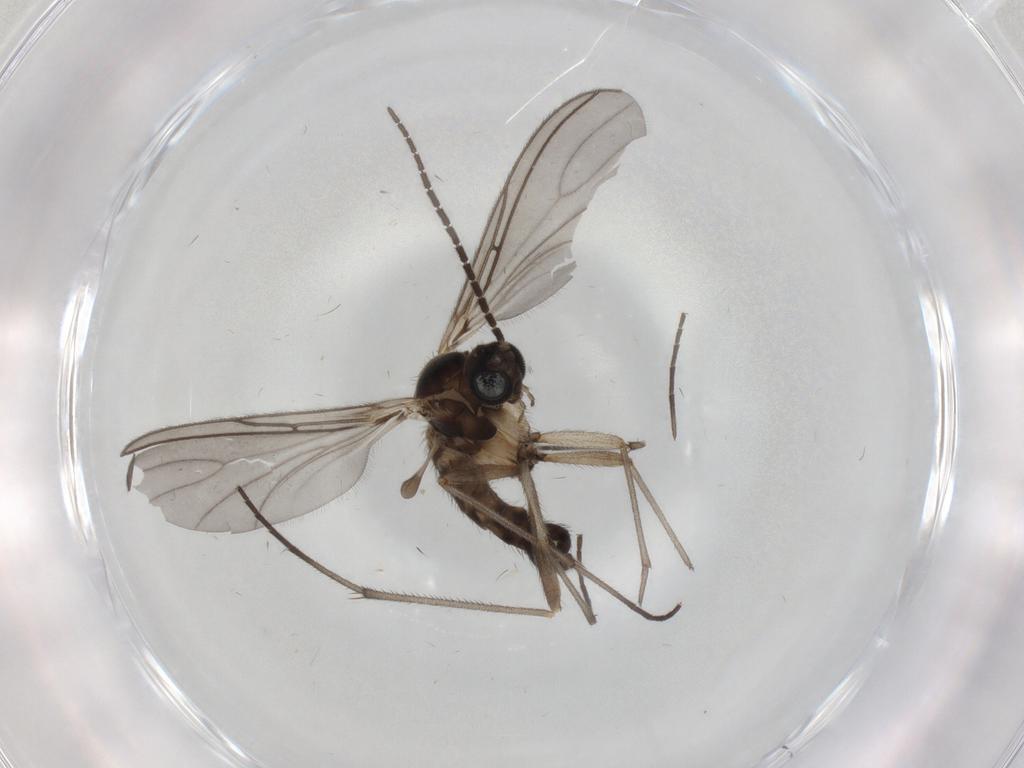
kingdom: Animalia
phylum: Arthropoda
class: Insecta
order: Diptera
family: Sciaridae
